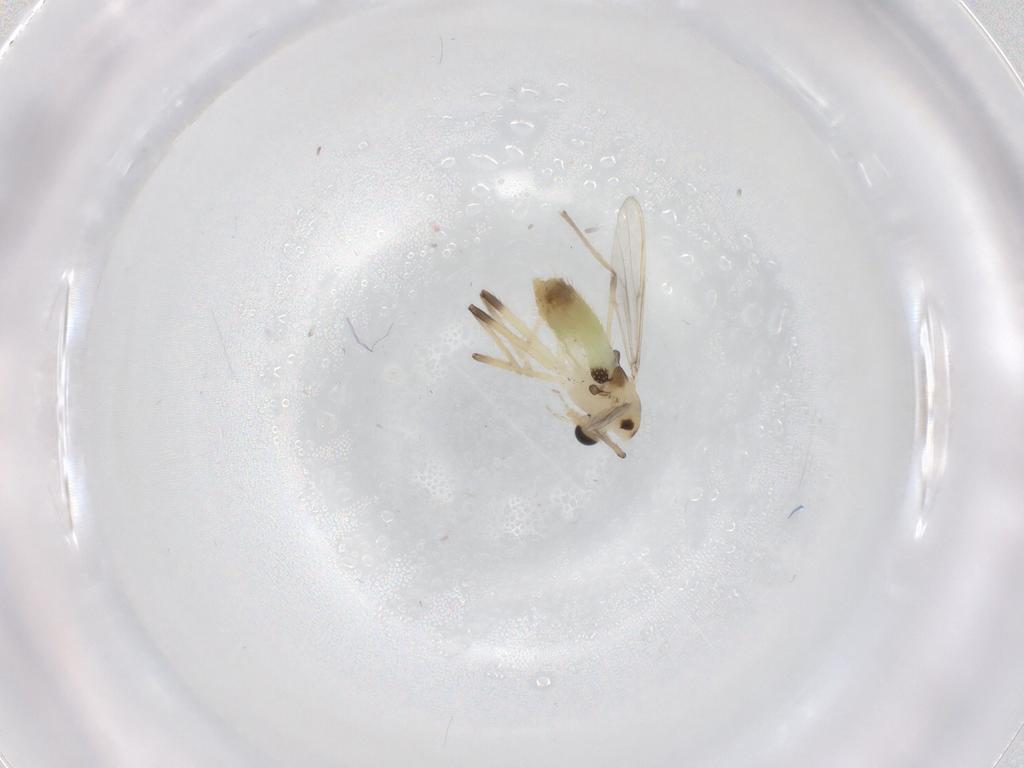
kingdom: Animalia
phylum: Arthropoda
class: Insecta
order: Diptera
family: Chironomidae
